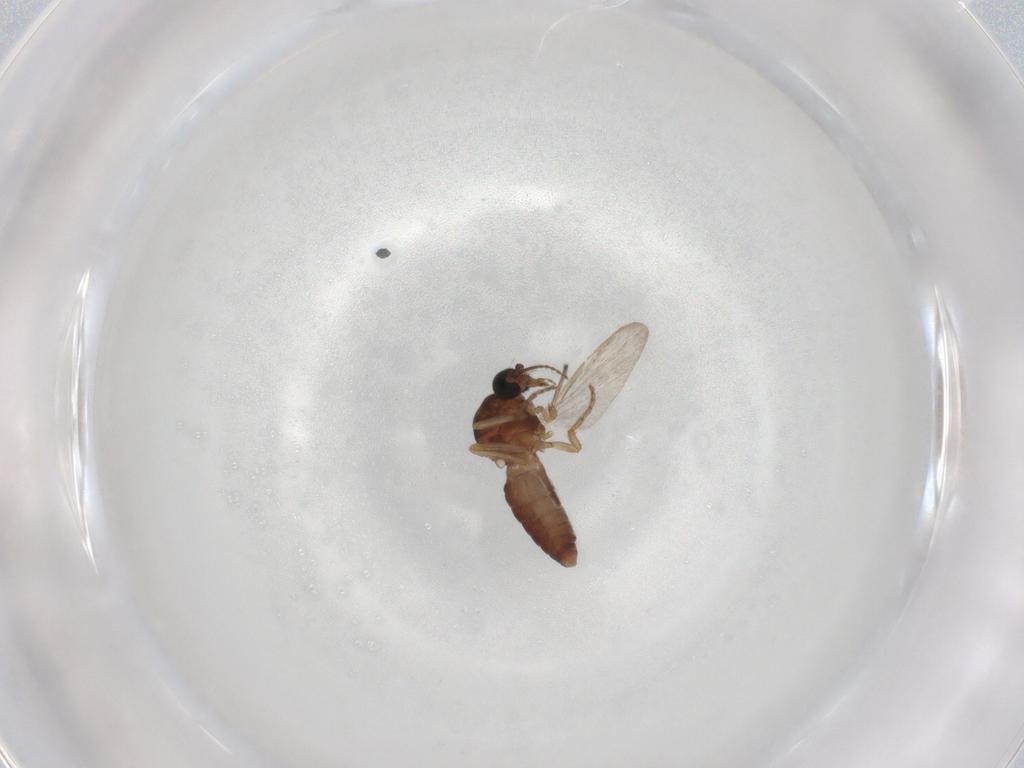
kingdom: Animalia
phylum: Arthropoda
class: Insecta
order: Diptera
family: Ceratopogonidae
